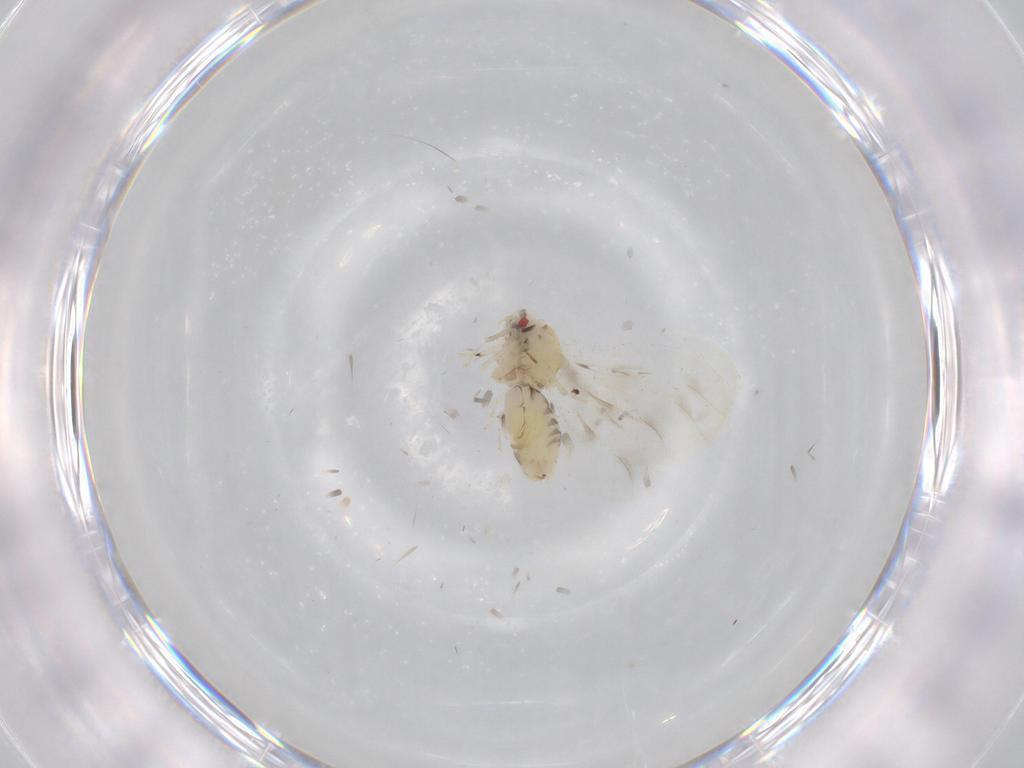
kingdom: Animalia
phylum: Arthropoda
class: Insecta
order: Hemiptera
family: Aleyrodidae
